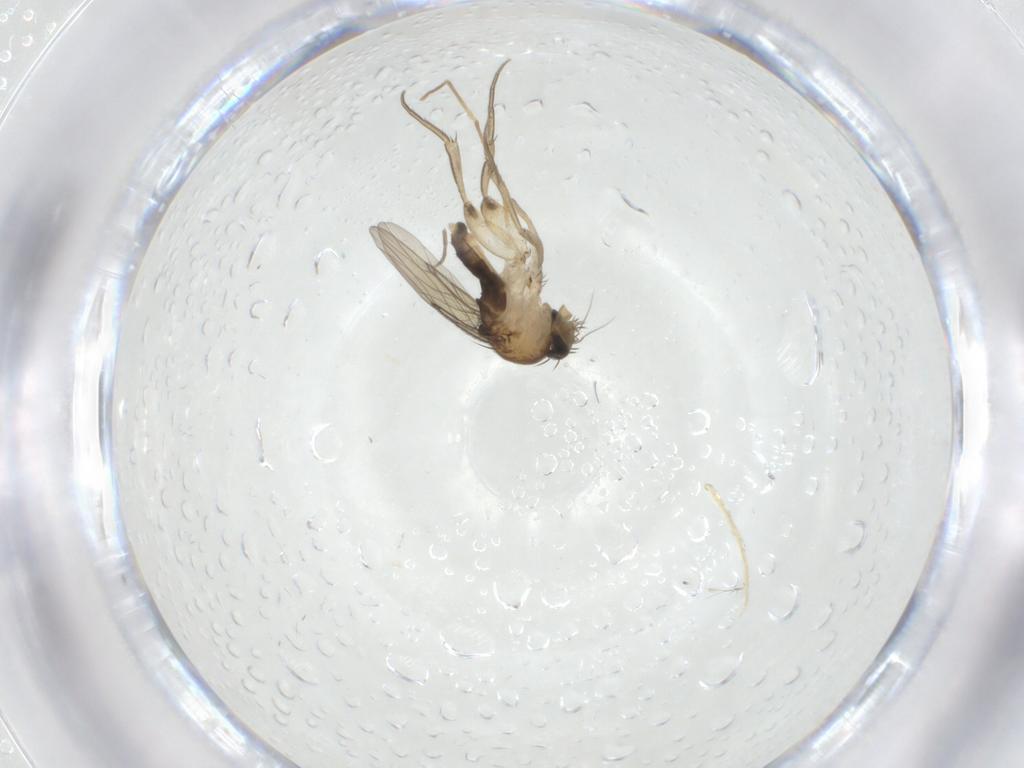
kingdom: Animalia
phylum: Arthropoda
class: Insecta
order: Diptera
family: Phoridae
